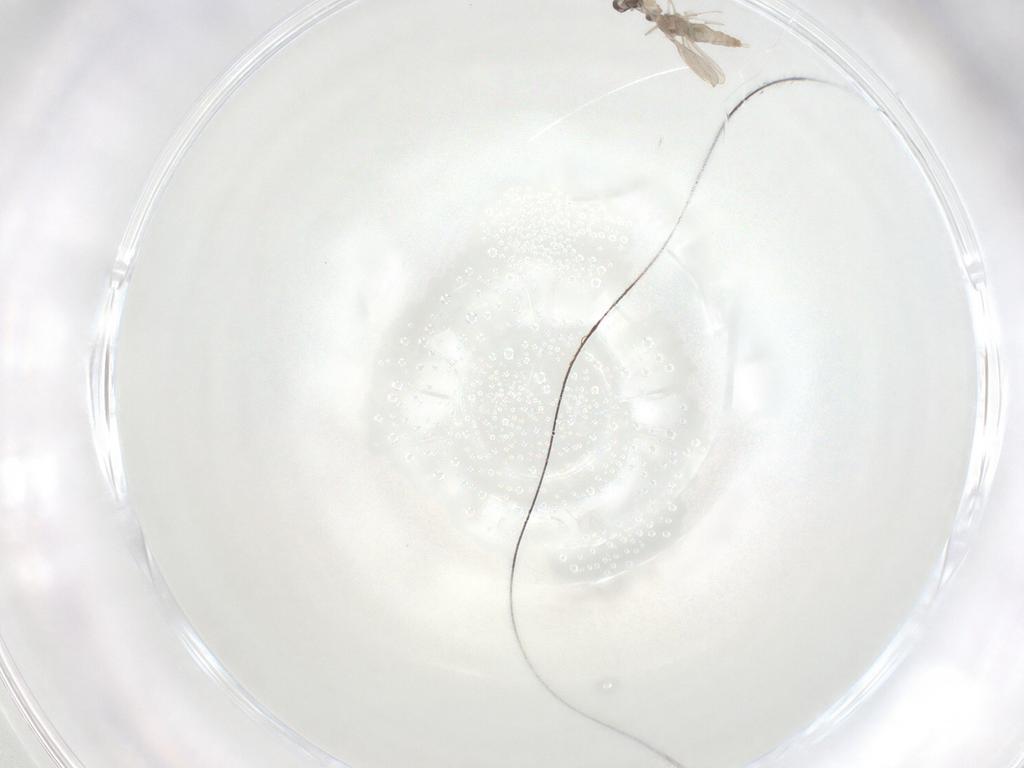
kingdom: Animalia
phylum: Arthropoda
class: Insecta
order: Diptera
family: Cecidomyiidae
